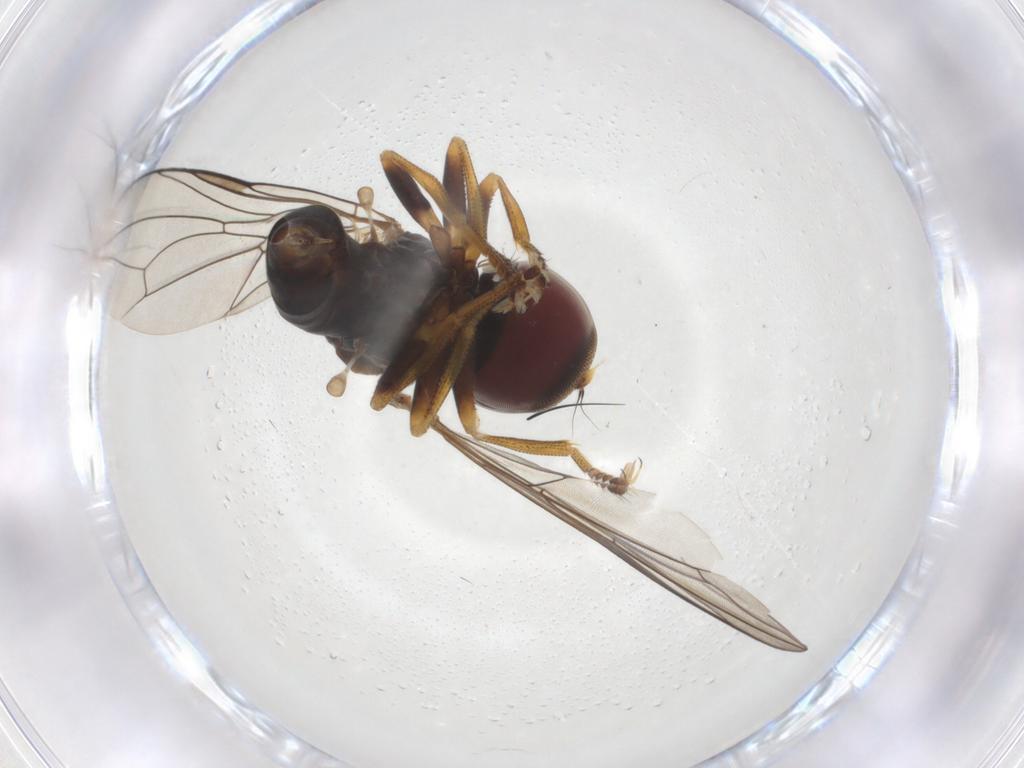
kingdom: Animalia
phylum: Arthropoda
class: Insecta
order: Diptera
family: Pipunculidae
